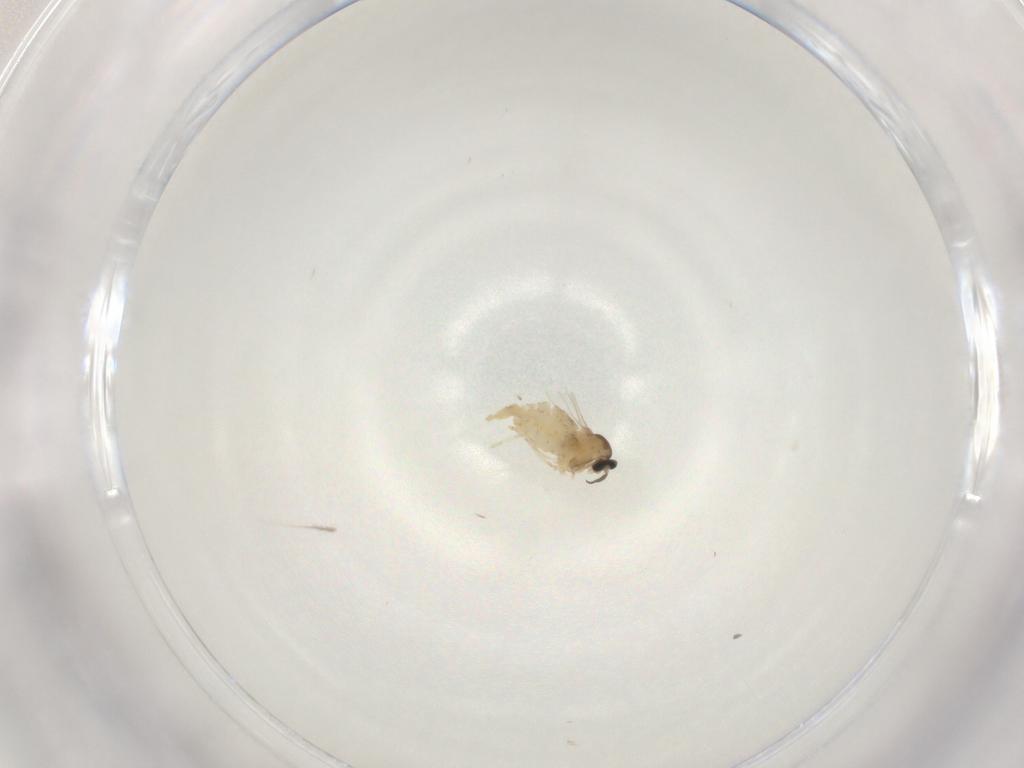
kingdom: Animalia
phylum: Arthropoda
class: Insecta
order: Diptera
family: Cecidomyiidae
